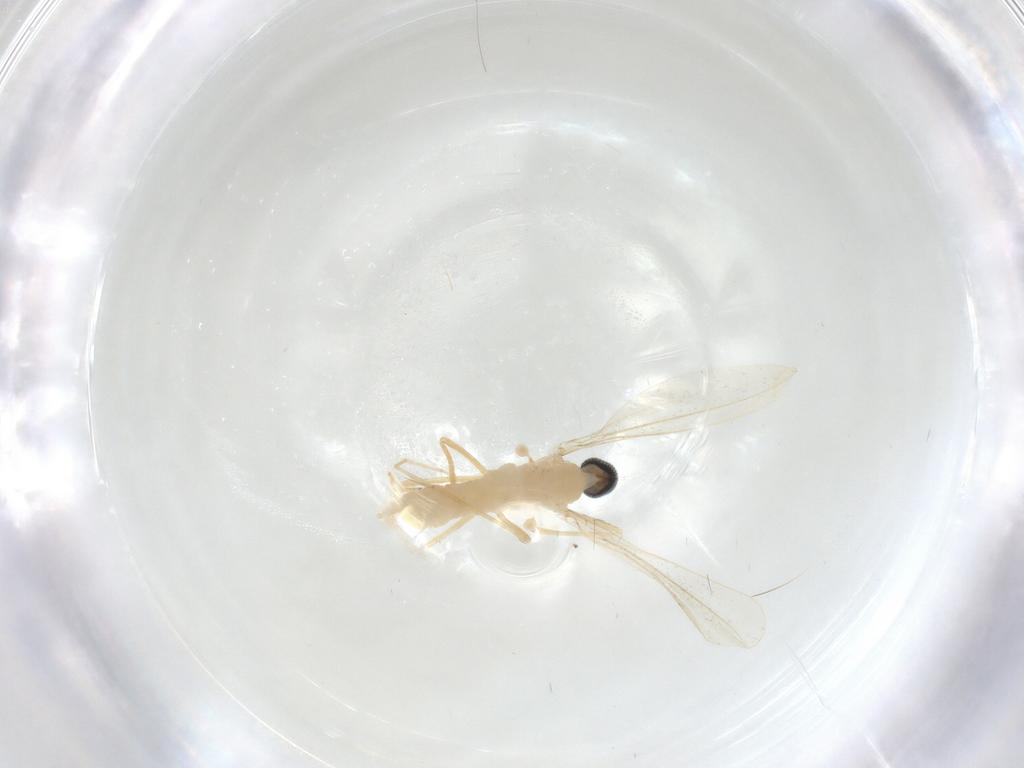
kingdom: Animalia
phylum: Arthropoda
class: Insecta
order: Diptera
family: Cecidomyiidae
